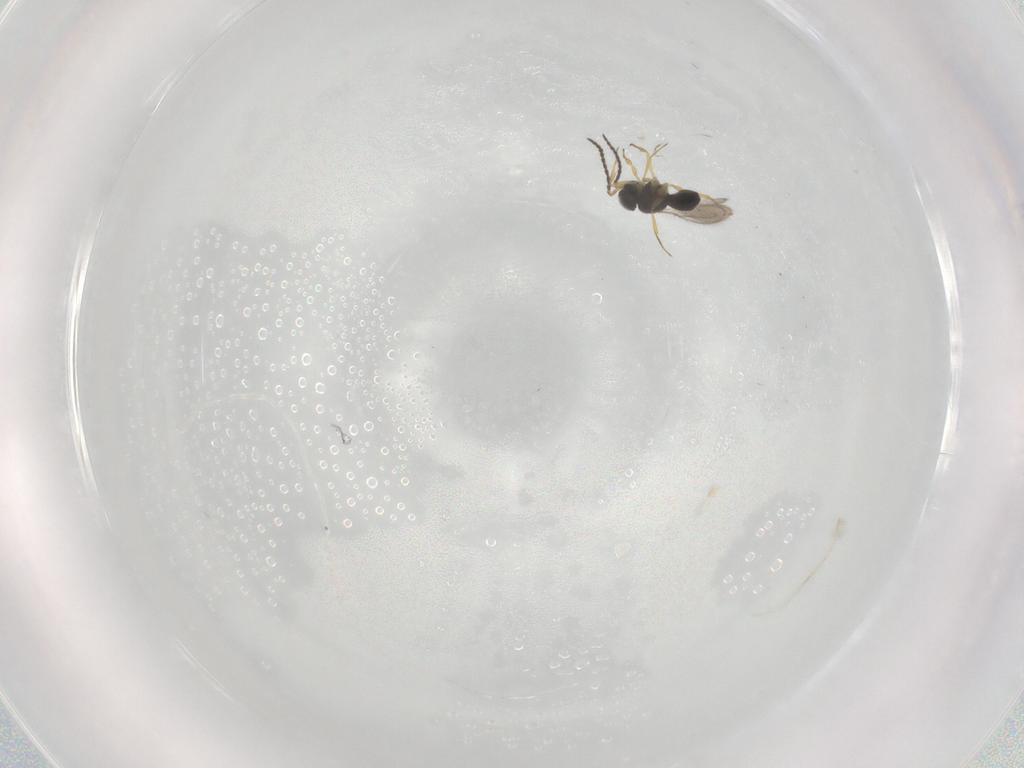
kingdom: Animalia
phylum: Arthropoda
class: Insecta
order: Hymenoptera
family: Scelionidae
